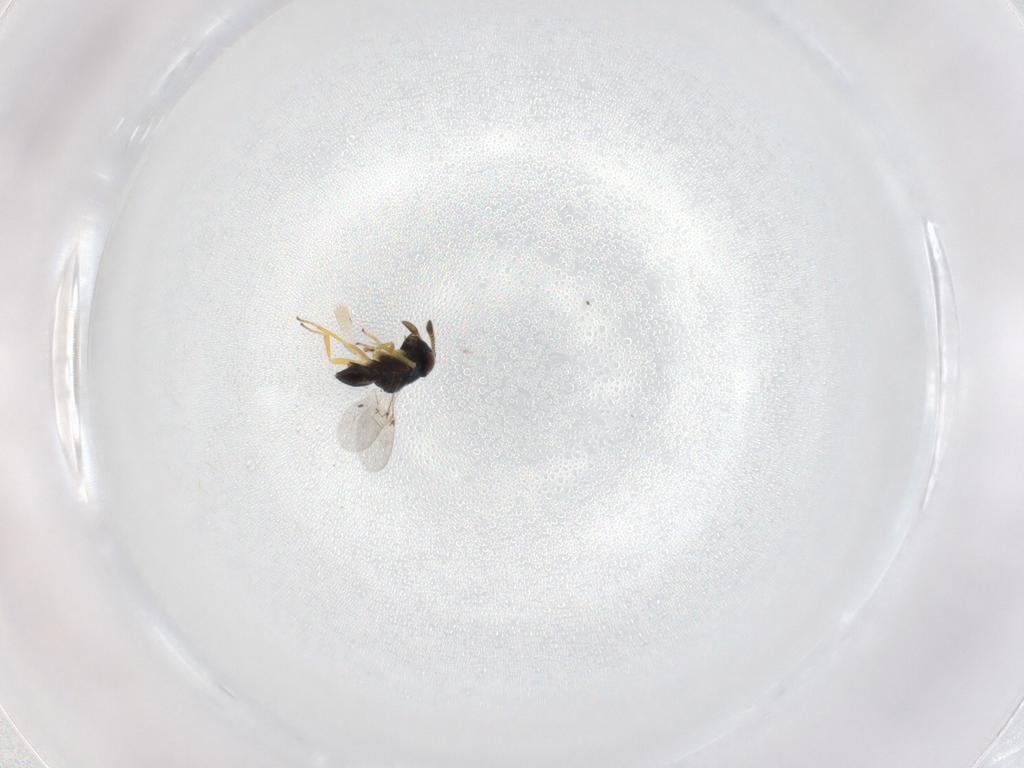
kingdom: Animalia
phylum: Arthropoda
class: Insecta
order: Hymenoptera
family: Encyrtidae
